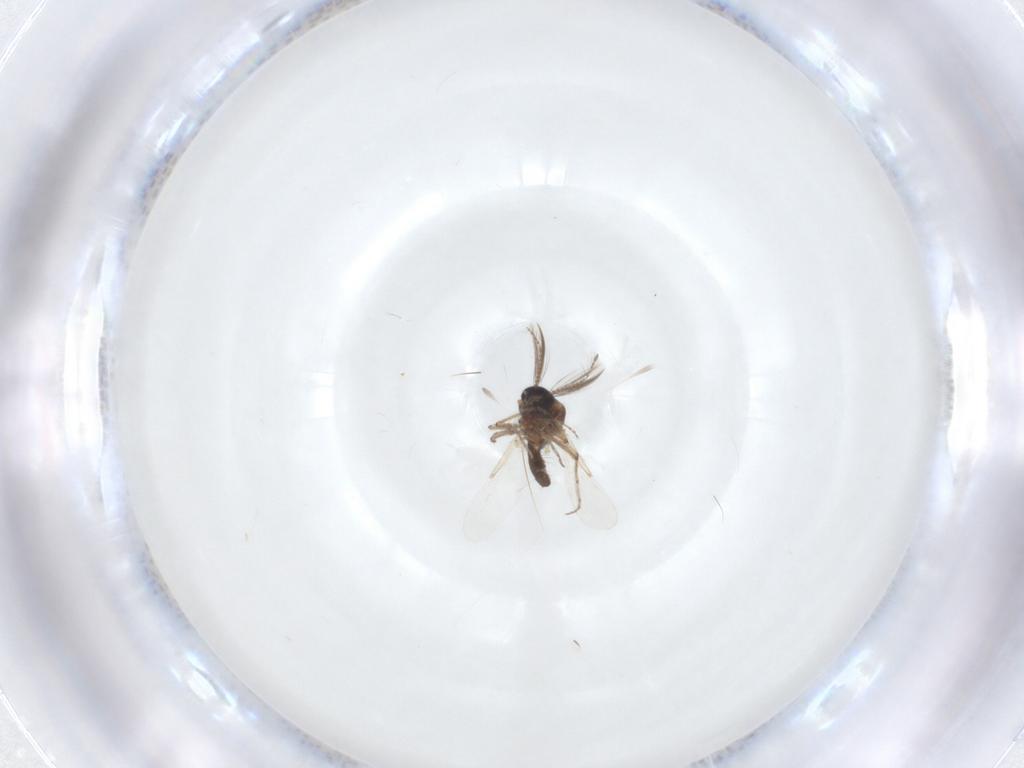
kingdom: Animalia
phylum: Arthropoda
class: Insecta
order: Diptera
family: Ceratopogonidae
